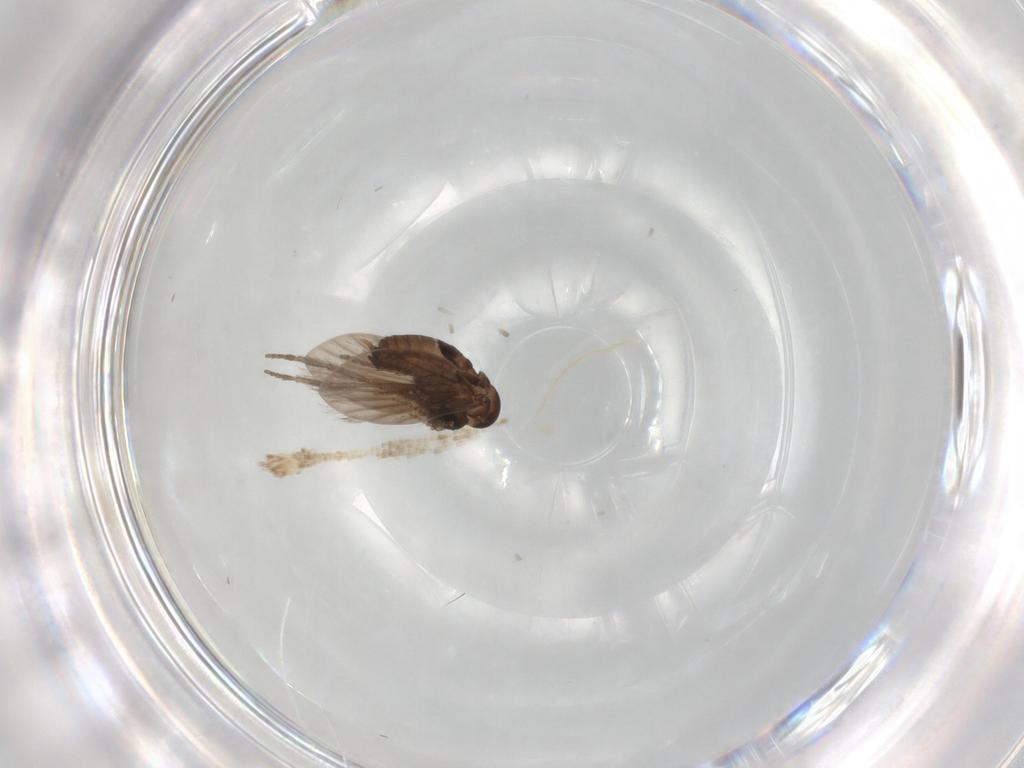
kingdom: Animalia
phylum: Arthropoda
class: Insecta
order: Diptera
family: Psychodidae
